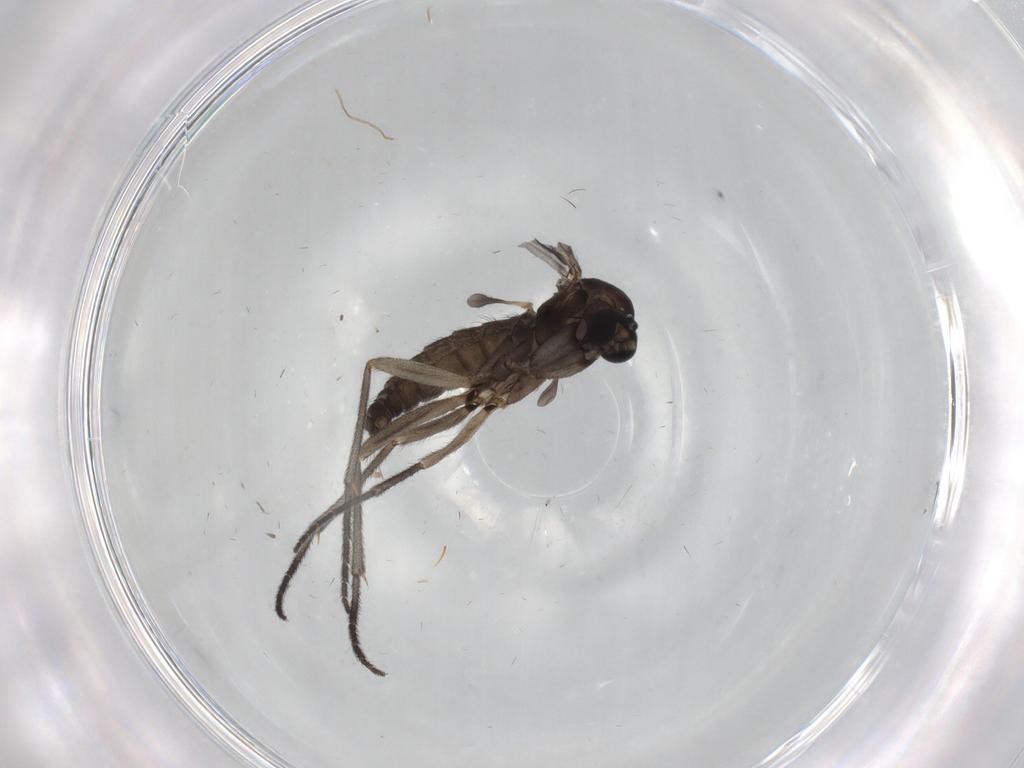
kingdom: Animalia
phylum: Arthropoda
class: Insecta
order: Diptera
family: Sciaridae
